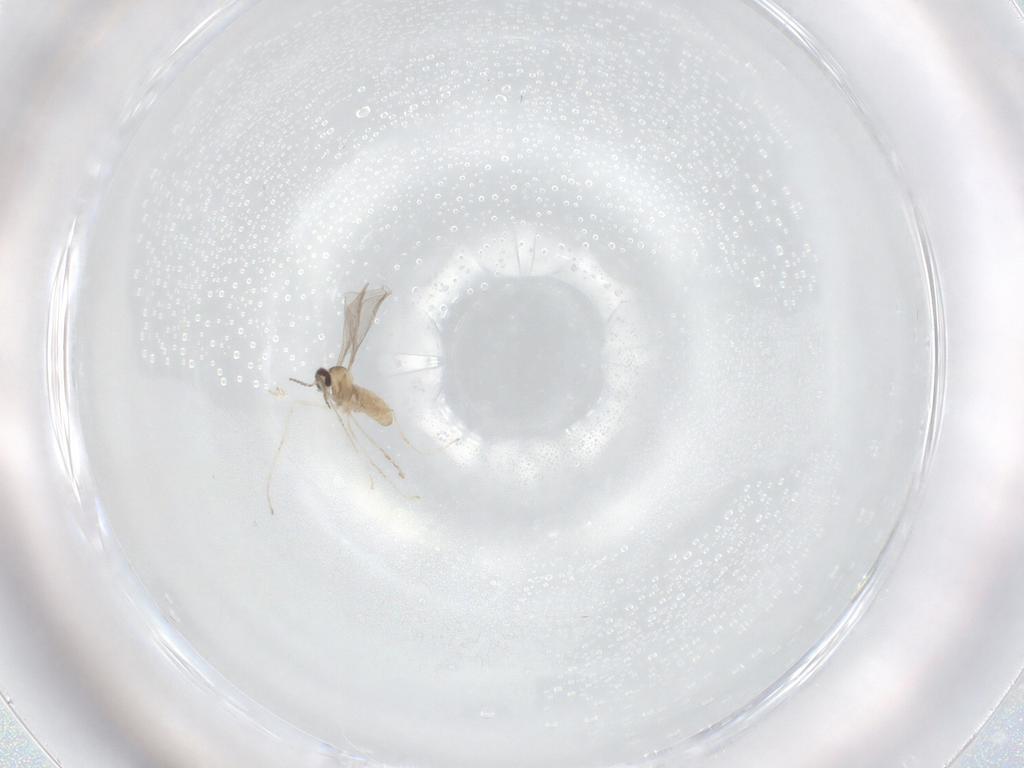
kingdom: Animalia
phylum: Arthropoda
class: Insecta
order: Diptera
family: Cecidomyiidae
